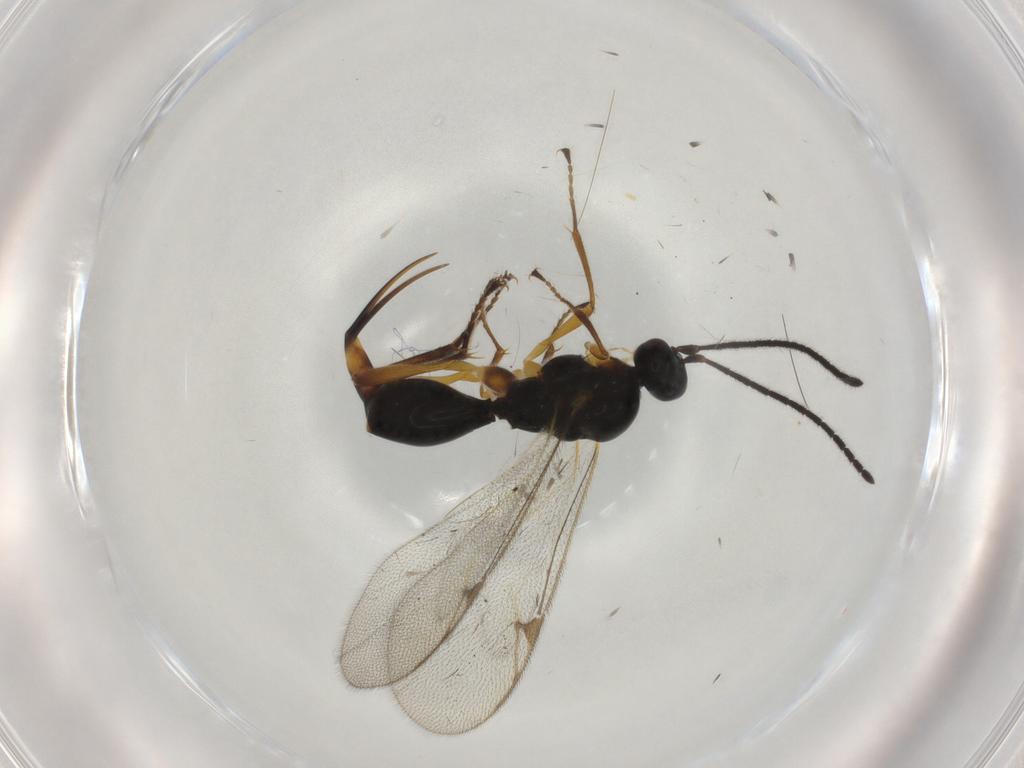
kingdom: Animalia
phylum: Arthropoda
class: Insecta
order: Hymenoptera
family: Proctotrupidae
